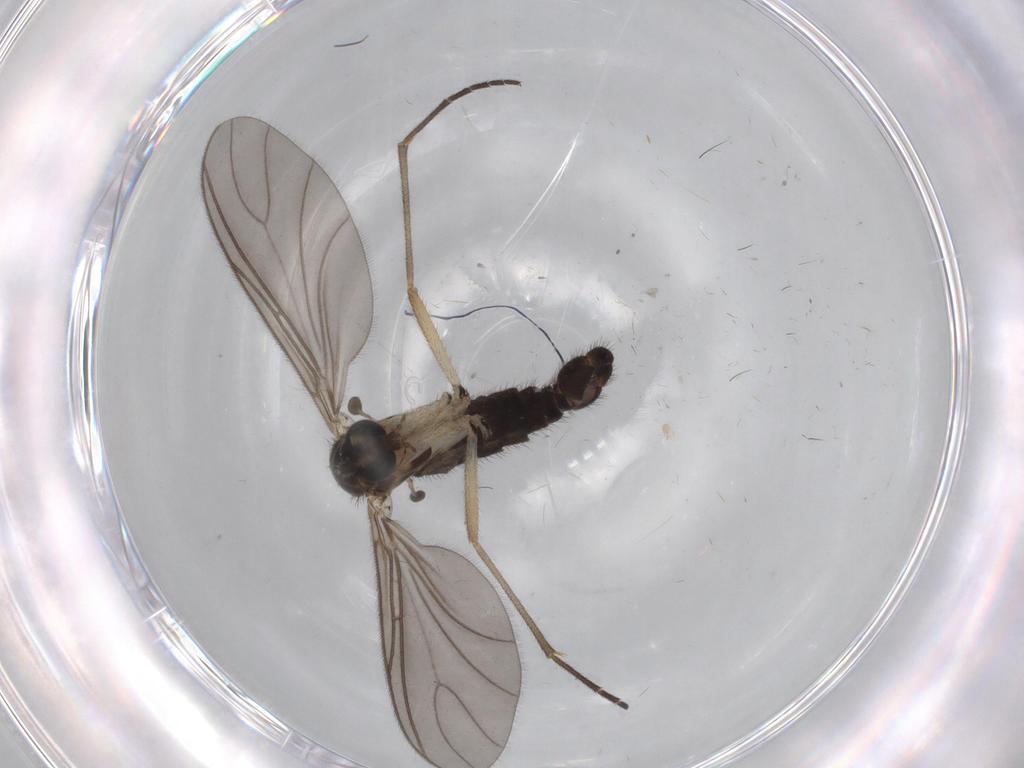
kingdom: Animalia
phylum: Arthropoda
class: Insecta
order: Diptera
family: Sciaridae
